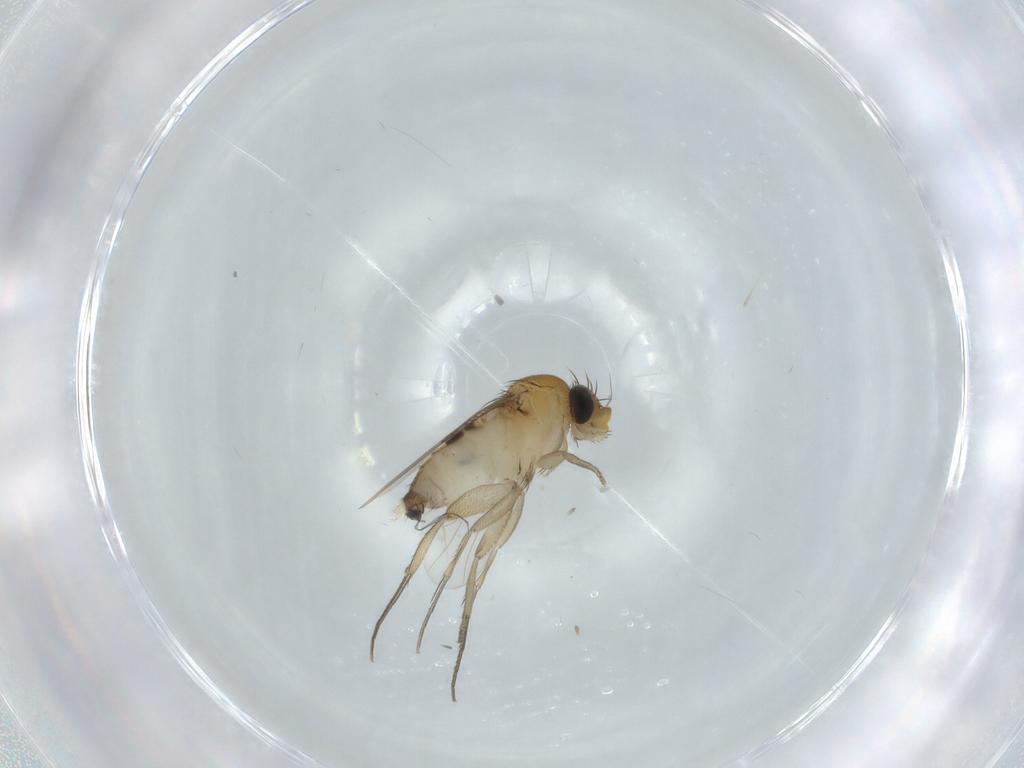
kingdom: Animalia
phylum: Arthropoda
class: Insecta
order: Diptera
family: Phoridae
